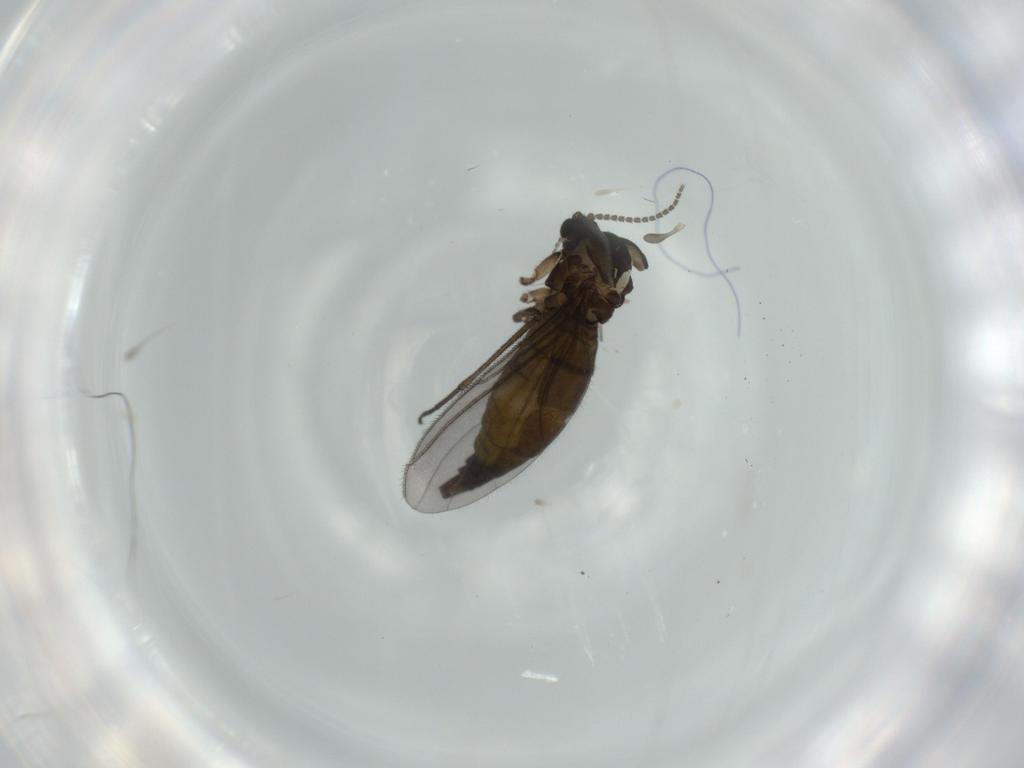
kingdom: Animalia
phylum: Arthropoda
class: Insecta
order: Diptera
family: Sciaridae
